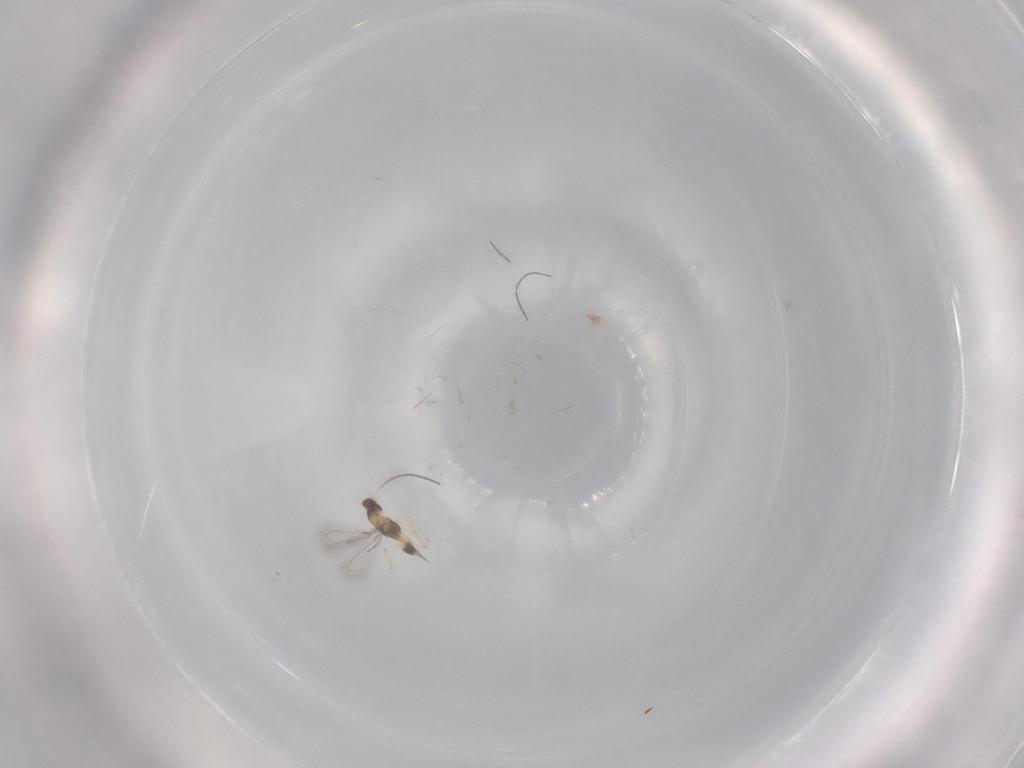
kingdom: Animalia
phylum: Arthropoda
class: Insecta
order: Hymenoptera
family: Mymaridae
